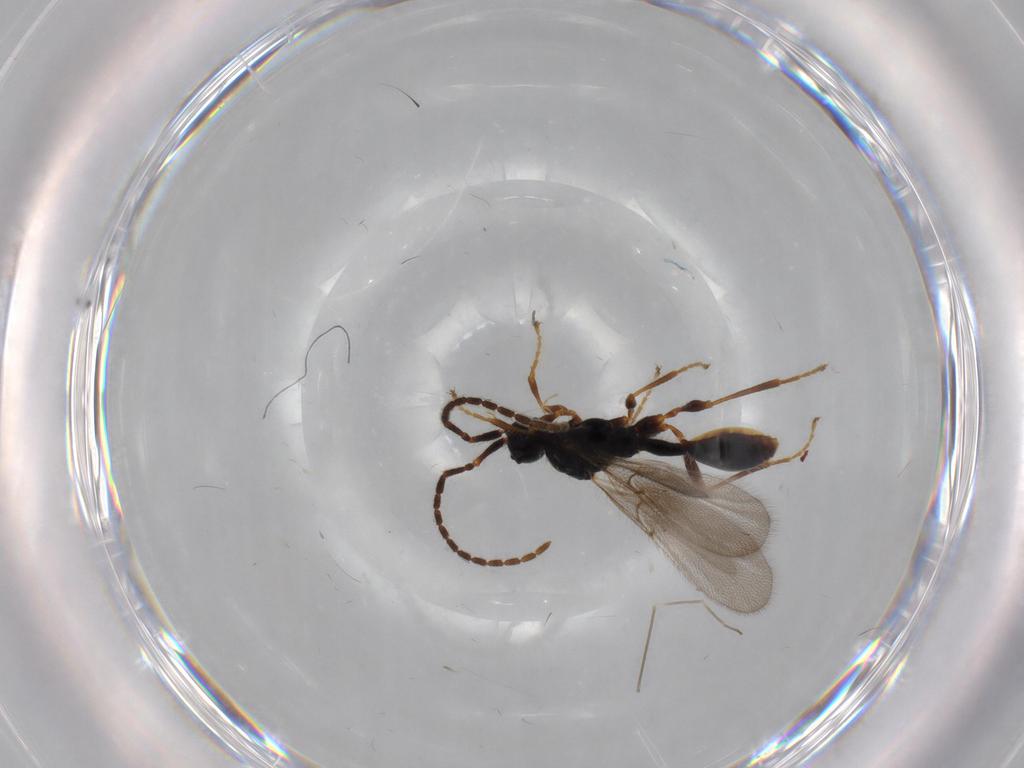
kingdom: Animalia
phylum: Arthropoda
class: Insecta
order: Hymenoptera
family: Diapriidae
